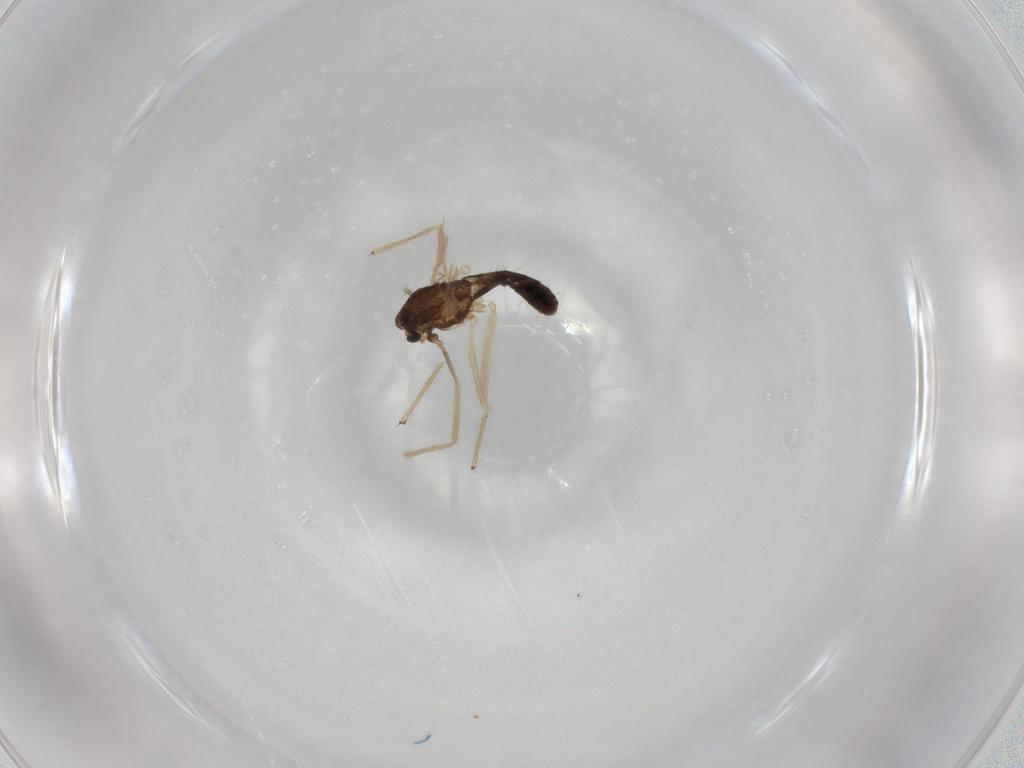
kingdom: Animalia
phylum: Arthropoda
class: Insecta
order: Diptera
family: Chironomidae
